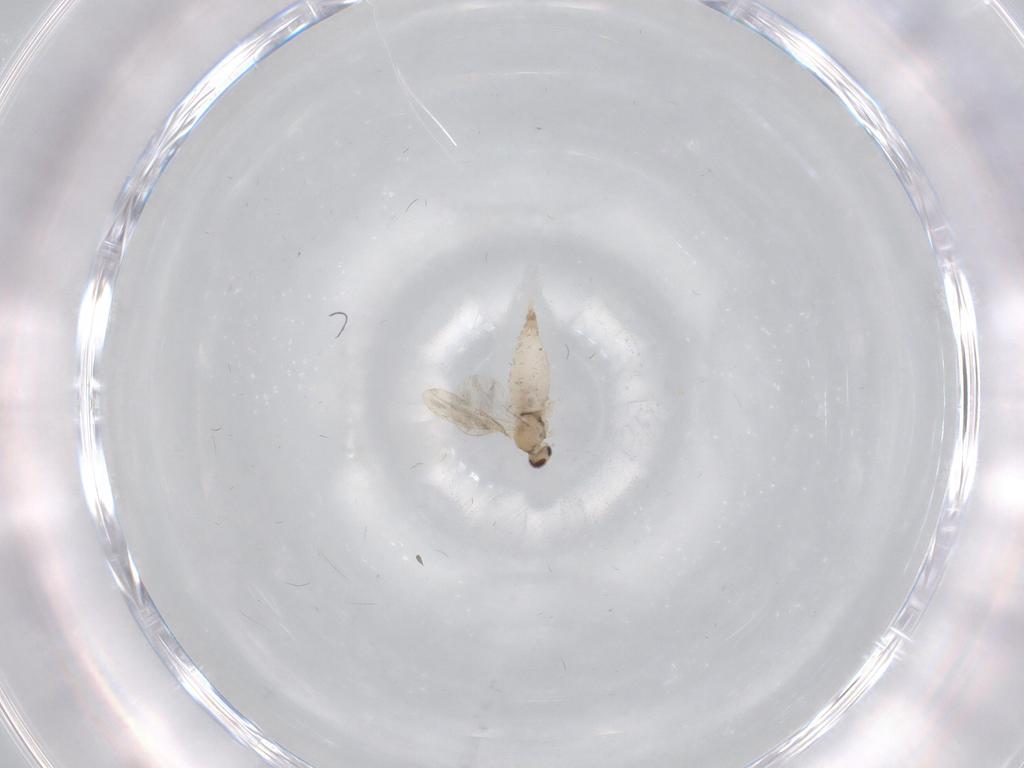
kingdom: Animalia
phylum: Arthropoda
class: Insecta
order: Diptera
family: Cecidomyiidae
